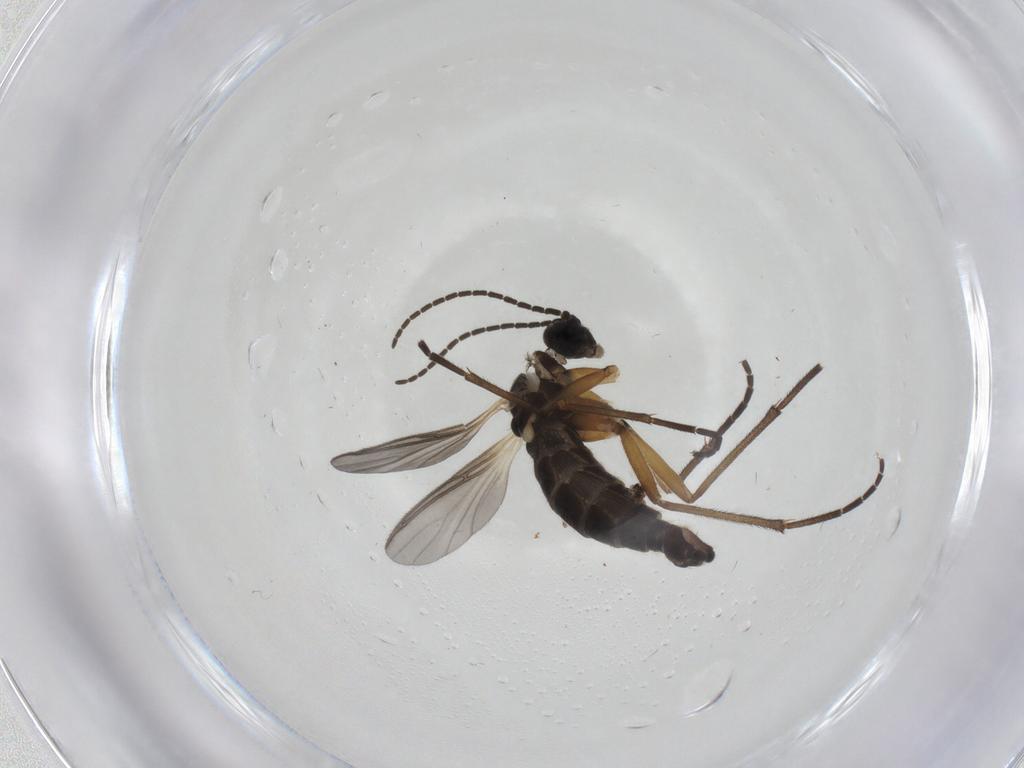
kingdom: Animalia
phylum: Arthropoda
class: Insecta
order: Diptera
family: Sciaridae
